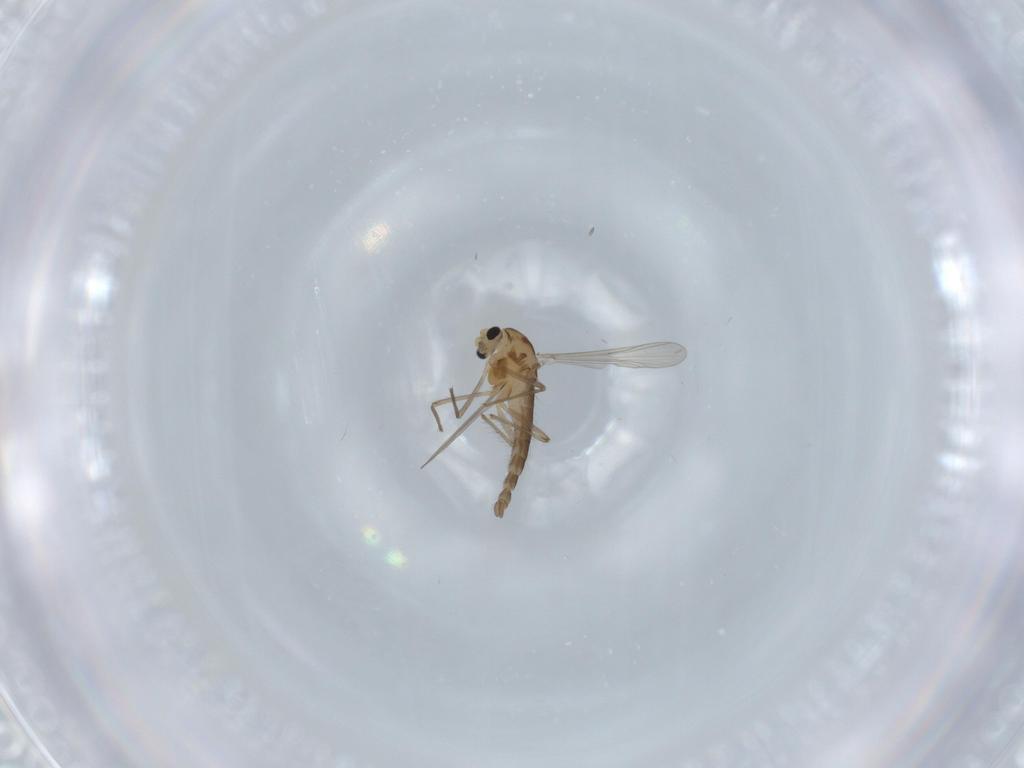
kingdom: Animalia
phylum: Arthropoda
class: Insecta
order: Diptera
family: Chironomidae
